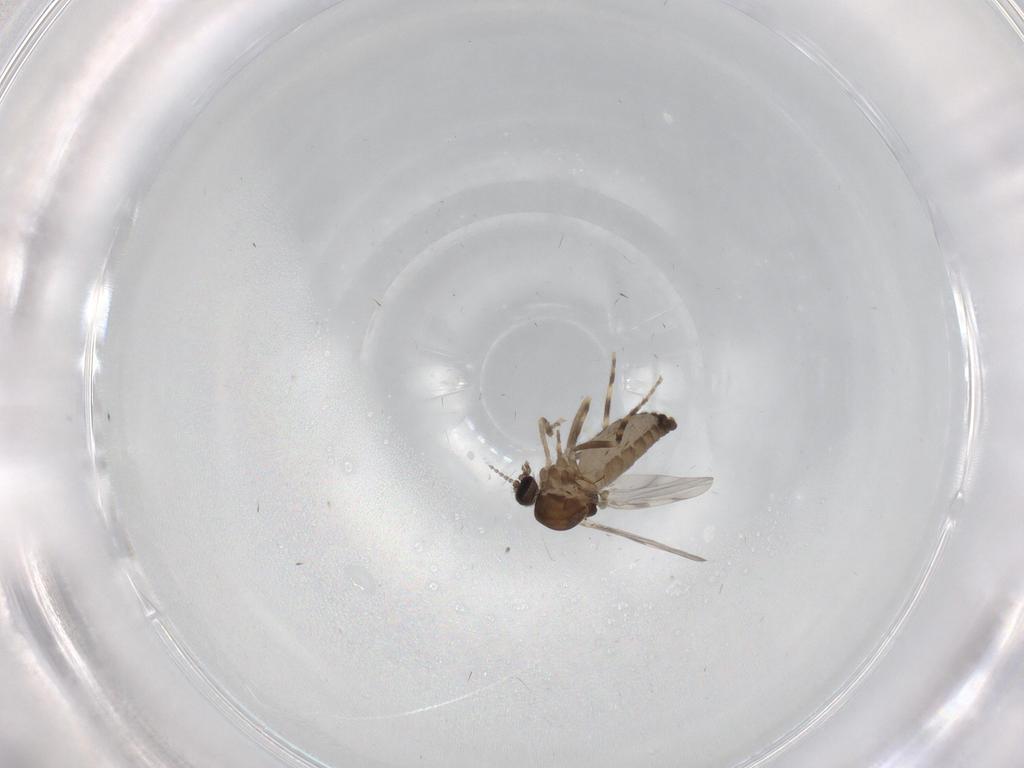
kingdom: Animalia
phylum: Arthropoda
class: Insecta
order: Diptera
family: Ceratopogonidae
